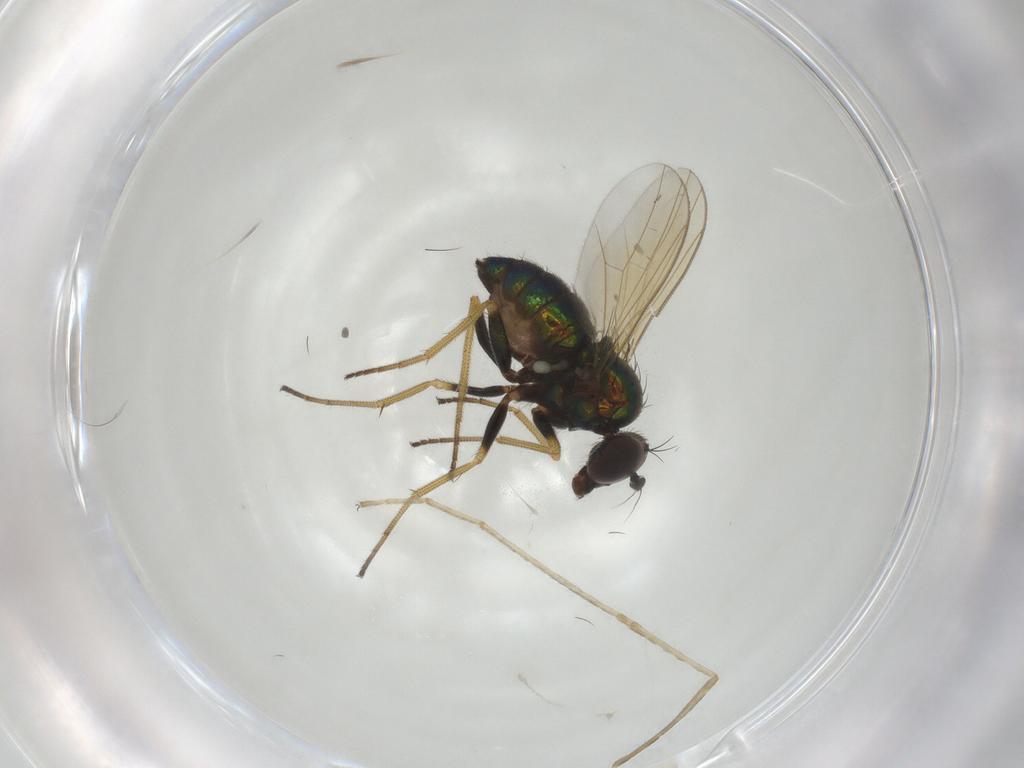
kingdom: Animalia
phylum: Arthropoda
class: Insecta
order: Diptera
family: Dolichopodidae
